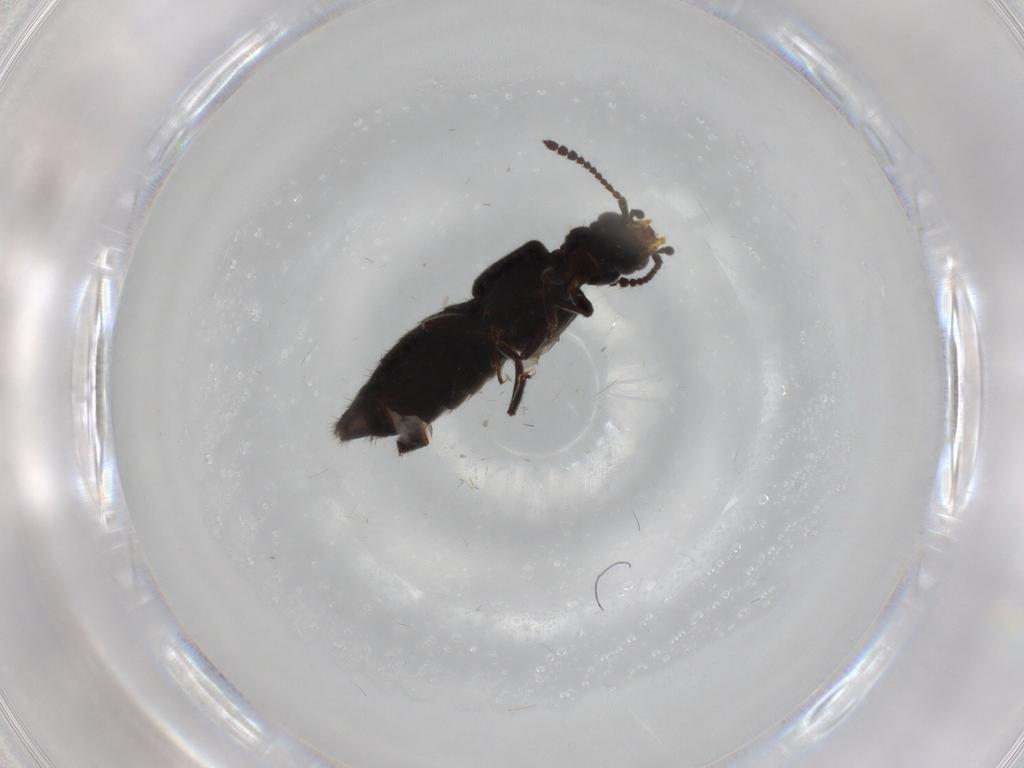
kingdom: Animalia
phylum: Arthropoda
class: Insecta
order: Coleoptera
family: Staphylinidae
